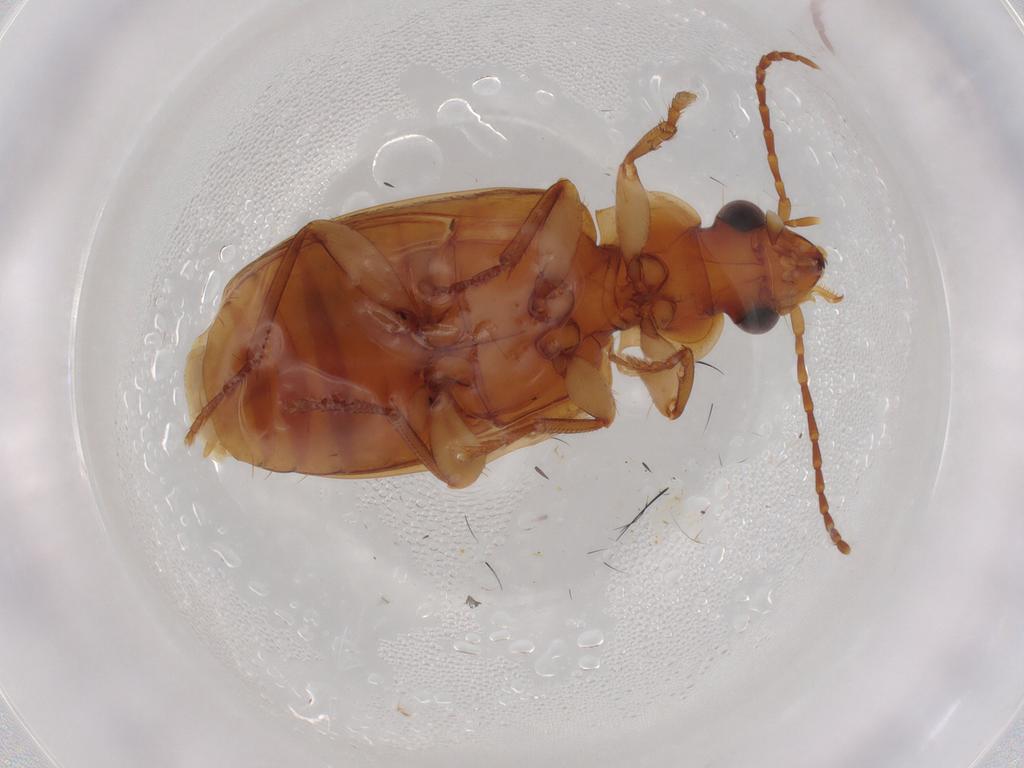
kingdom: Animalia
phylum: Arthropoda
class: Insecta
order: Coleoptera
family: Carabidae
